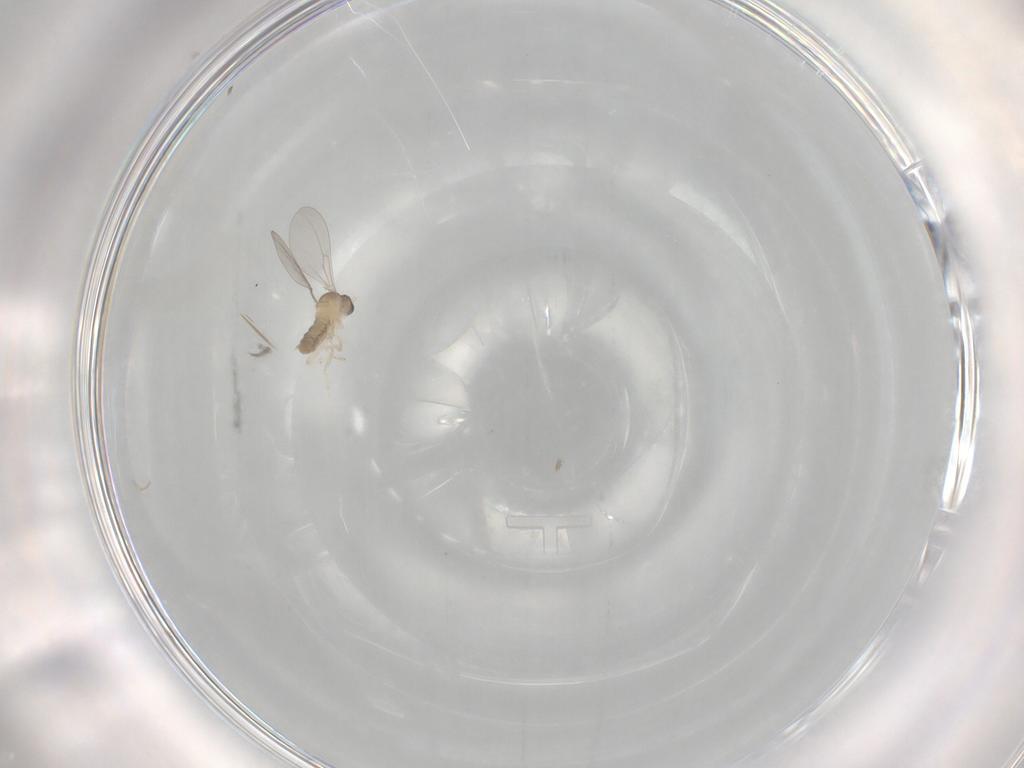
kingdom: Animalia
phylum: Arthropoda
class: Insecta
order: Diptera
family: Cecidomyiidae
